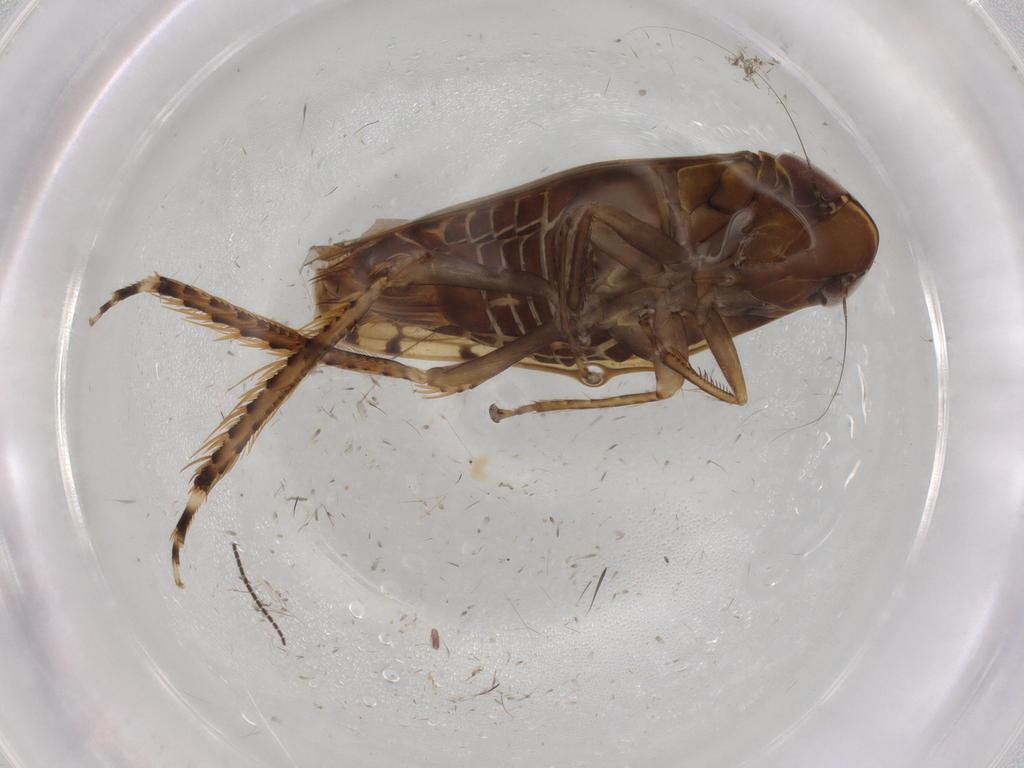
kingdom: Animalia
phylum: Arthropoda
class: Insecta
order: Hemiptera
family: Cicadellidae
